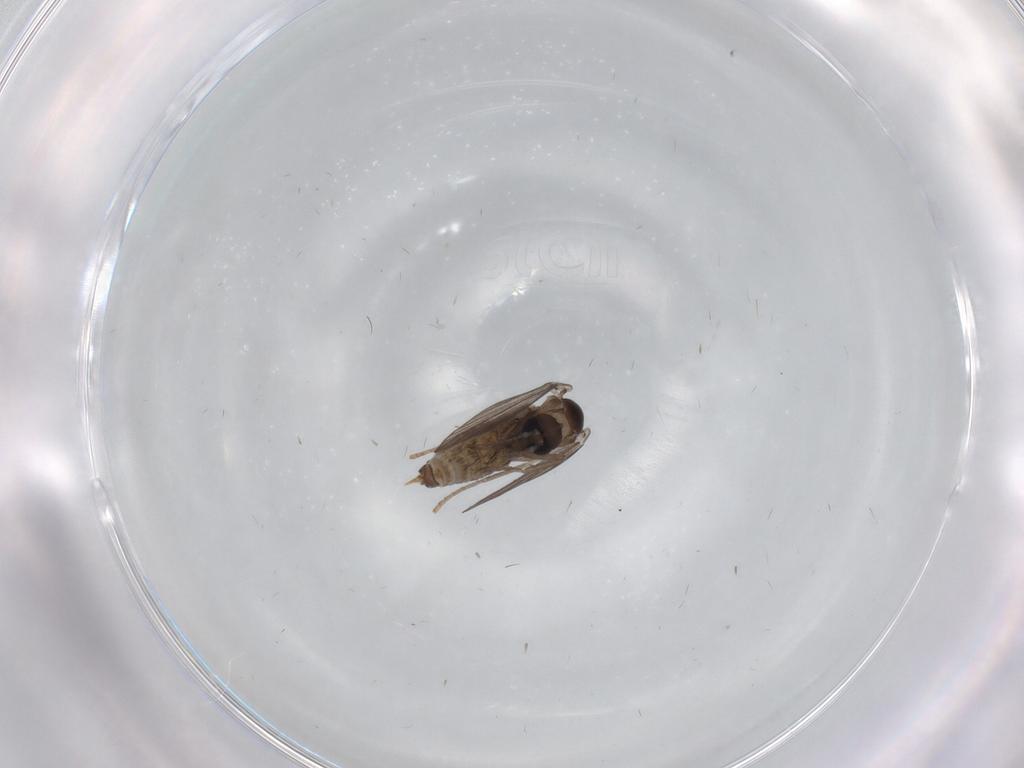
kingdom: Animalia
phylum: Arthropoda
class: Insecta
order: Diptera
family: Psychodidae
